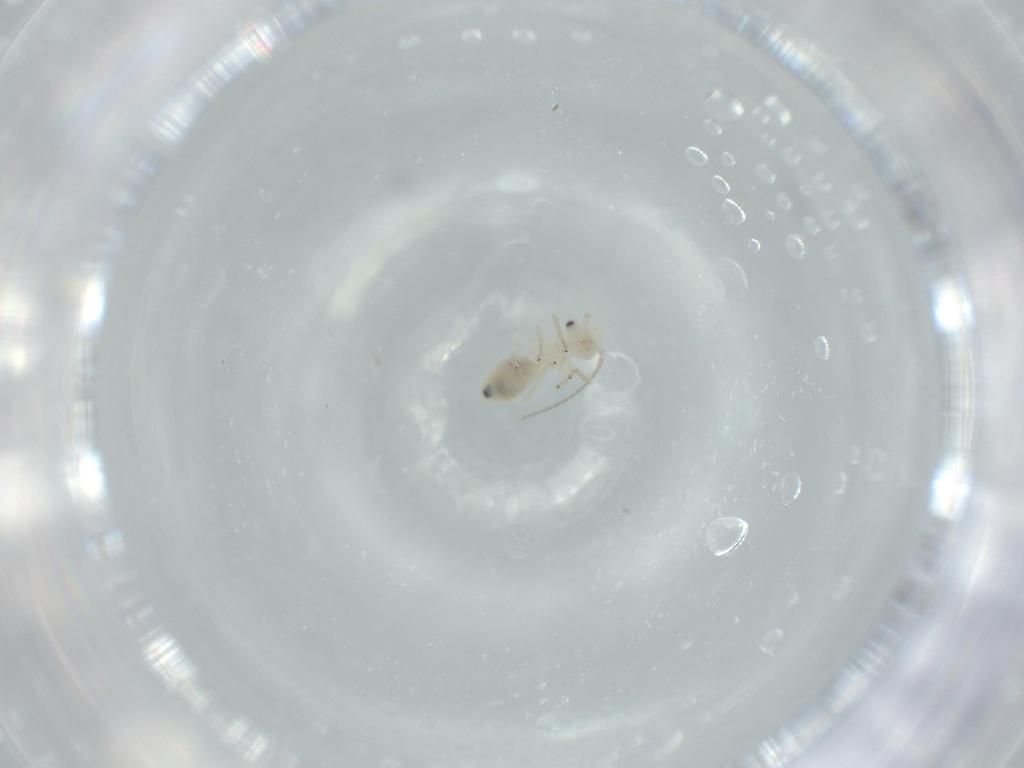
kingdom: Animalia
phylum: Arthropoda
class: Insecta
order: Psocodea
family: Caeciliusidae
